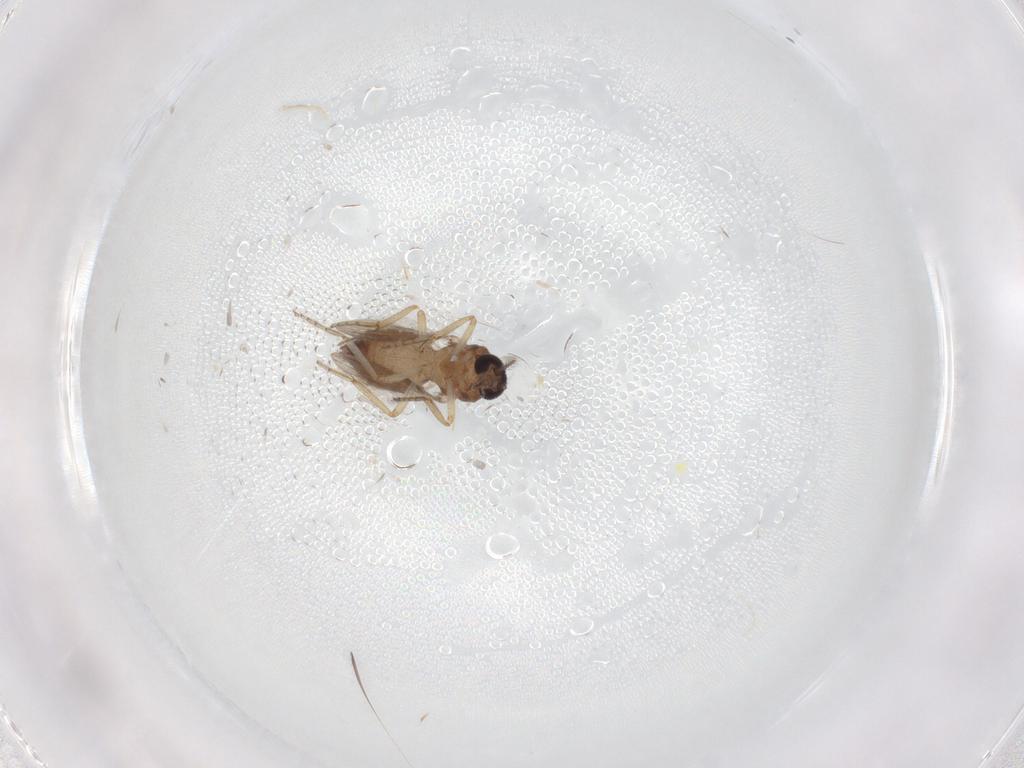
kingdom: Animalia
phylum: Arthropoda
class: Insecta
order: Diptera
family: Ceratopogonidae
